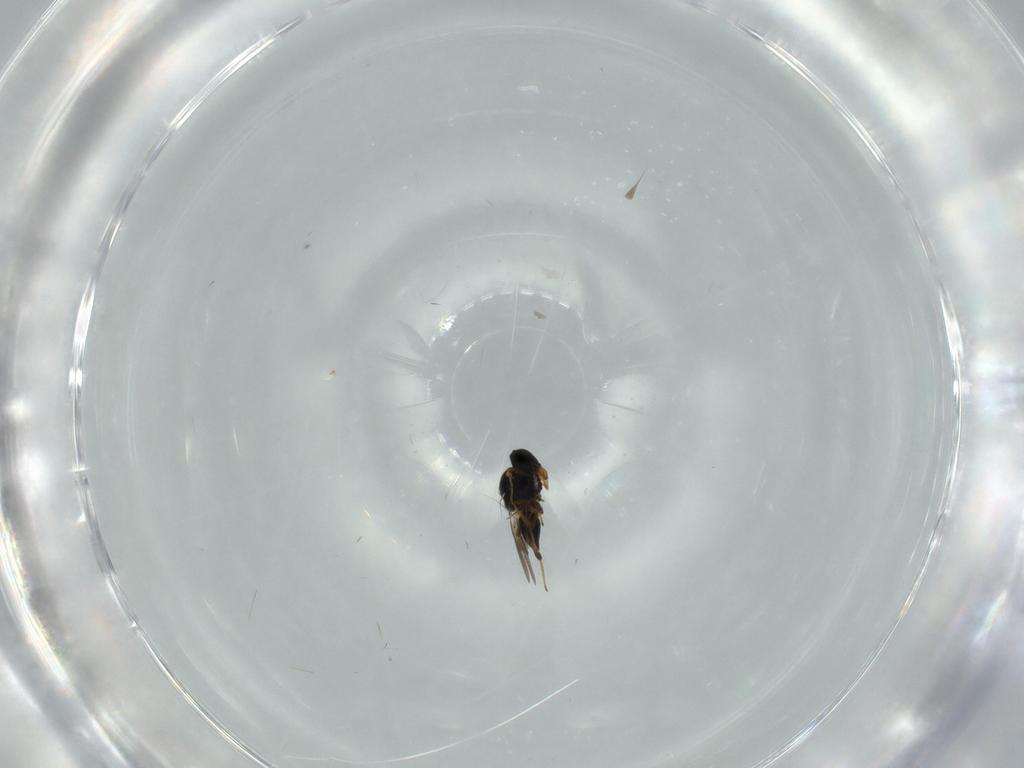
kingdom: Animalia
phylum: Arthropoda
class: Insecta
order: Hymenoptera
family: Platygastridae
